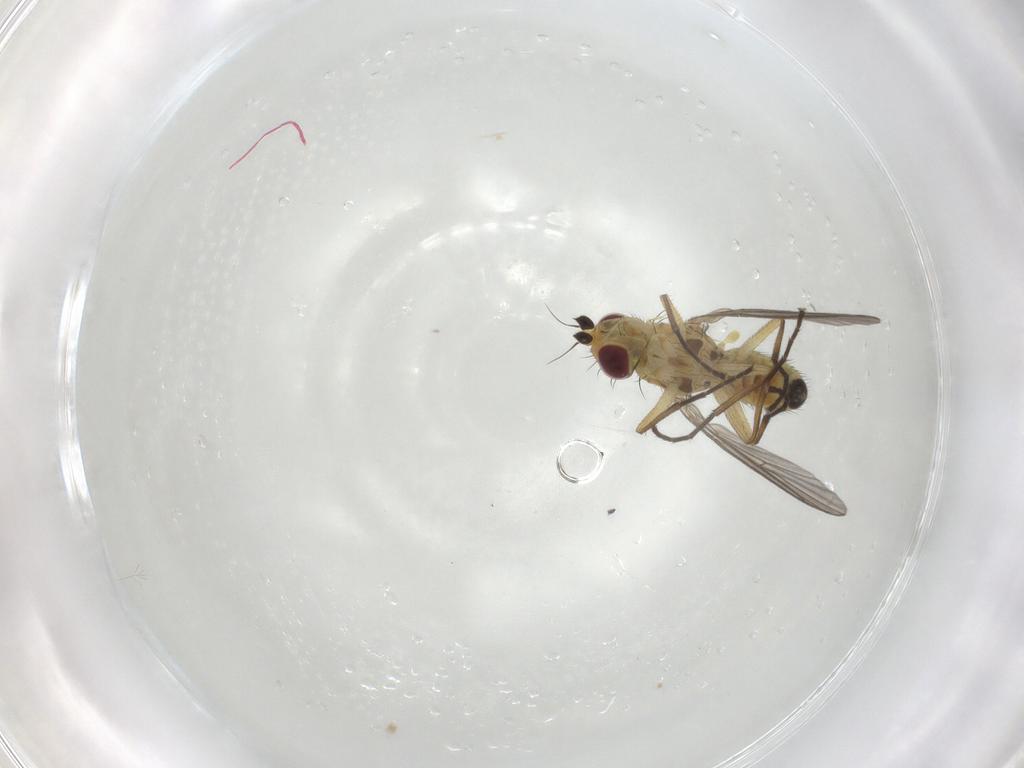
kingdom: Animalia
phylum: Arthropoda
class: Insecta
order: Diptera
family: Agromyzidae
